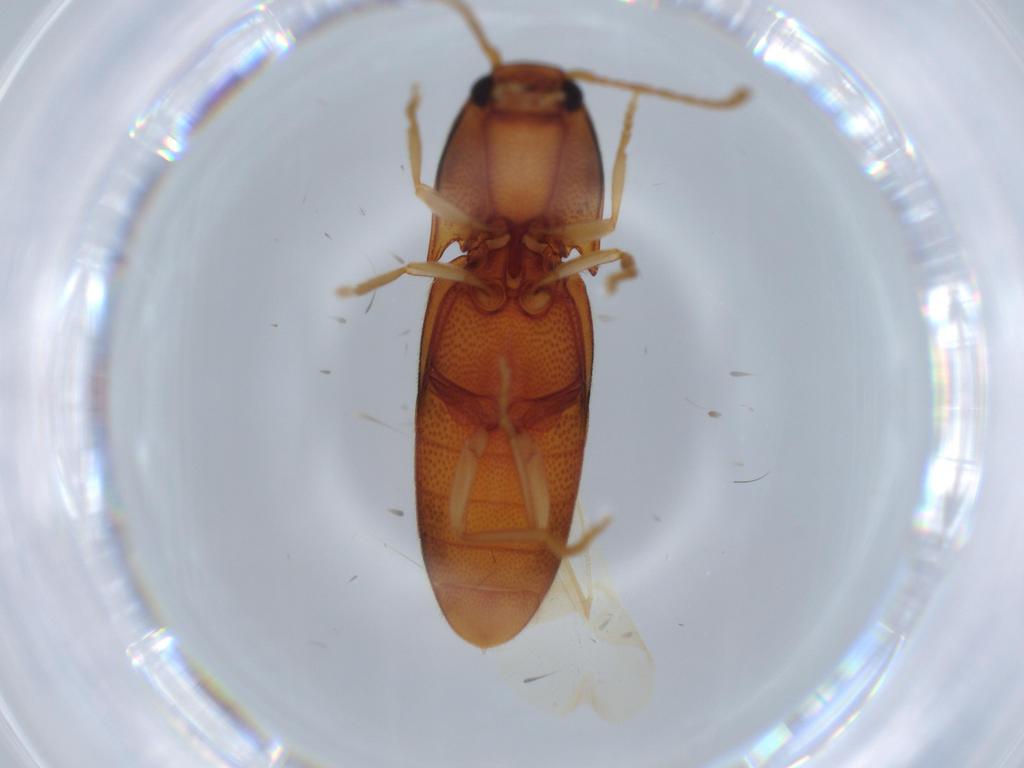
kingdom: Animalia
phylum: Arthropoda
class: Insecta
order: Coleoptera
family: Elateridae
